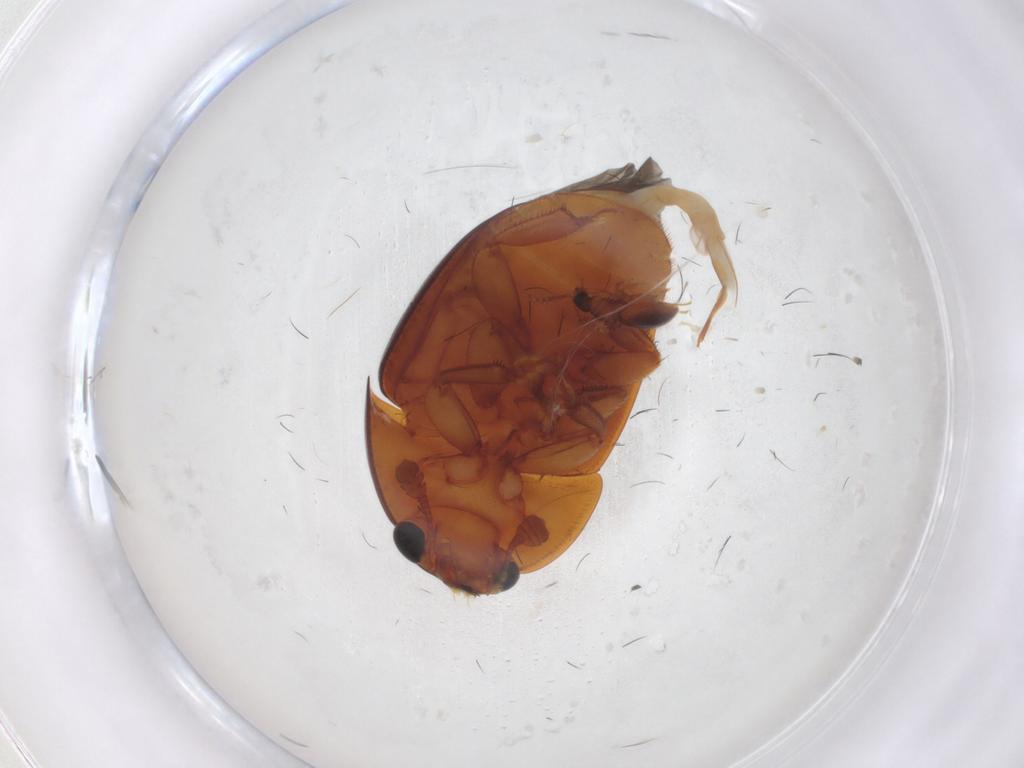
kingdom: Animalia
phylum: Arthropoda
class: Insecta
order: Coleoptera
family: Nitidulidae
